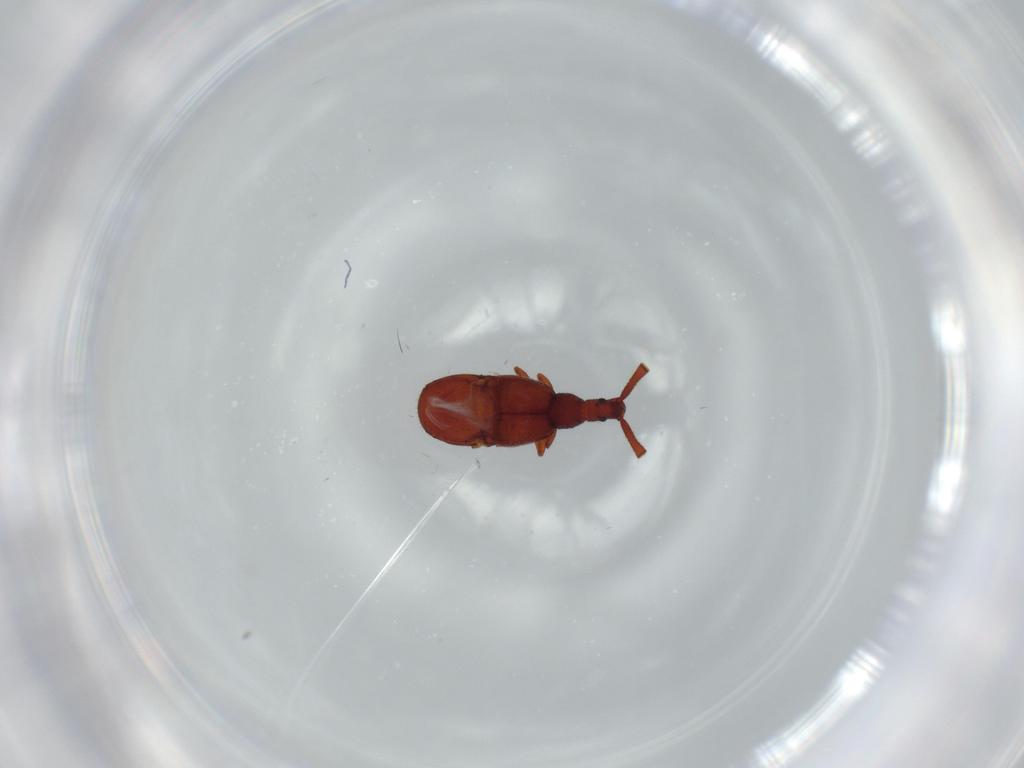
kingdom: Animalia
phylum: Arthropoda
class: Insecta
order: Coleoptera
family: Staphylinidae
